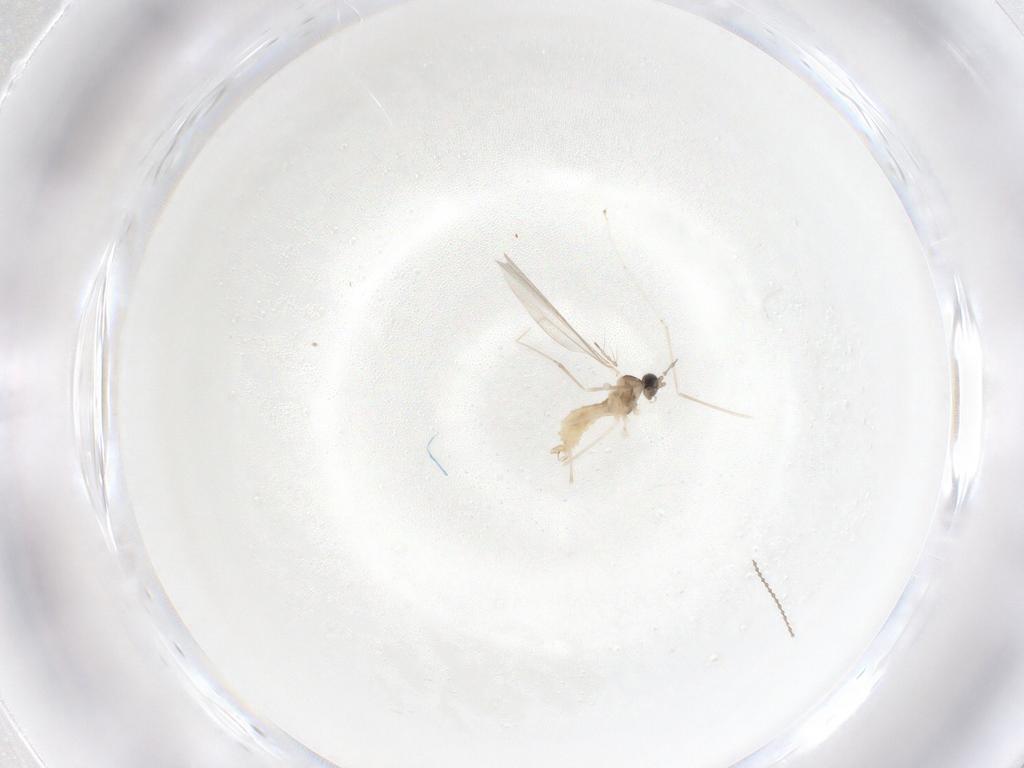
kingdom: Animalia
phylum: Arthropoda
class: Insecta
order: Diptera
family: Cecidomyiidae
